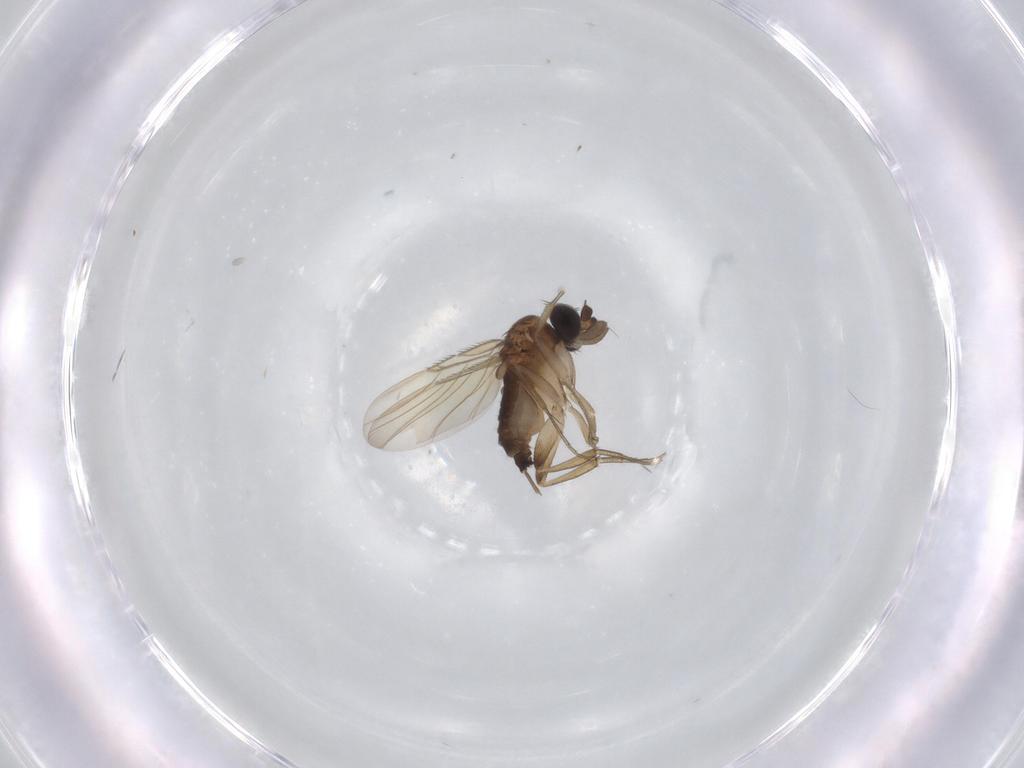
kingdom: Animalia
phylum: Arthropoda
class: Insecta
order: Diptera
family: Phoridae
